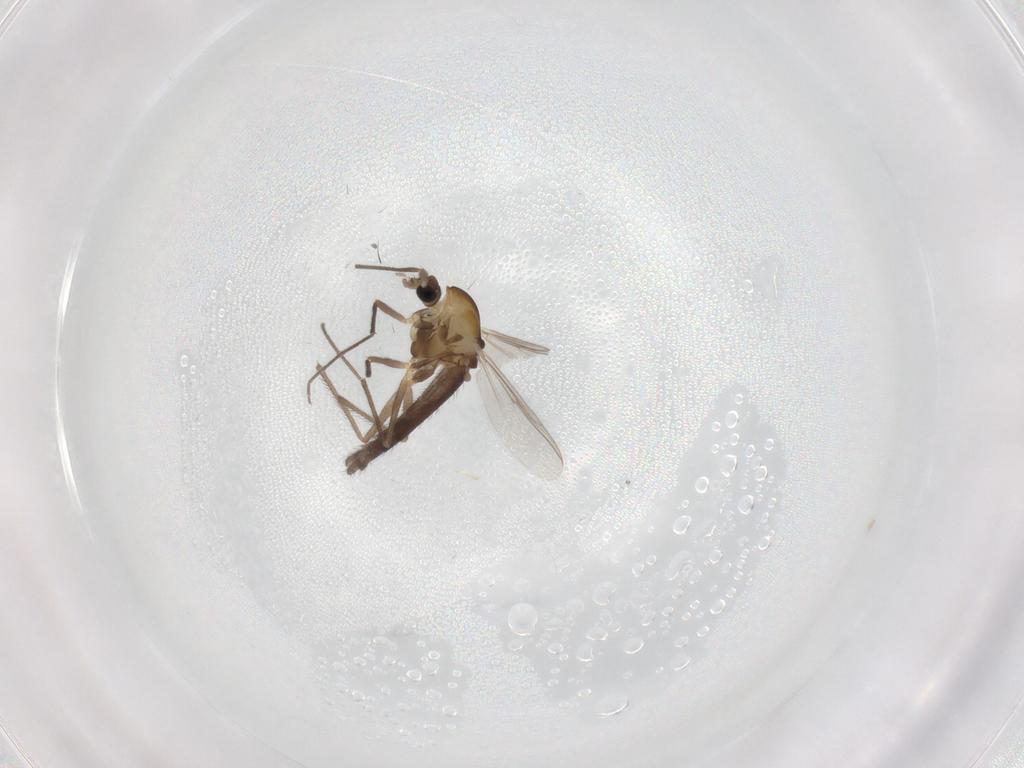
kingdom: Animalia
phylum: Arthropoda
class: Insecta
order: Diptera
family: Chironomidae
